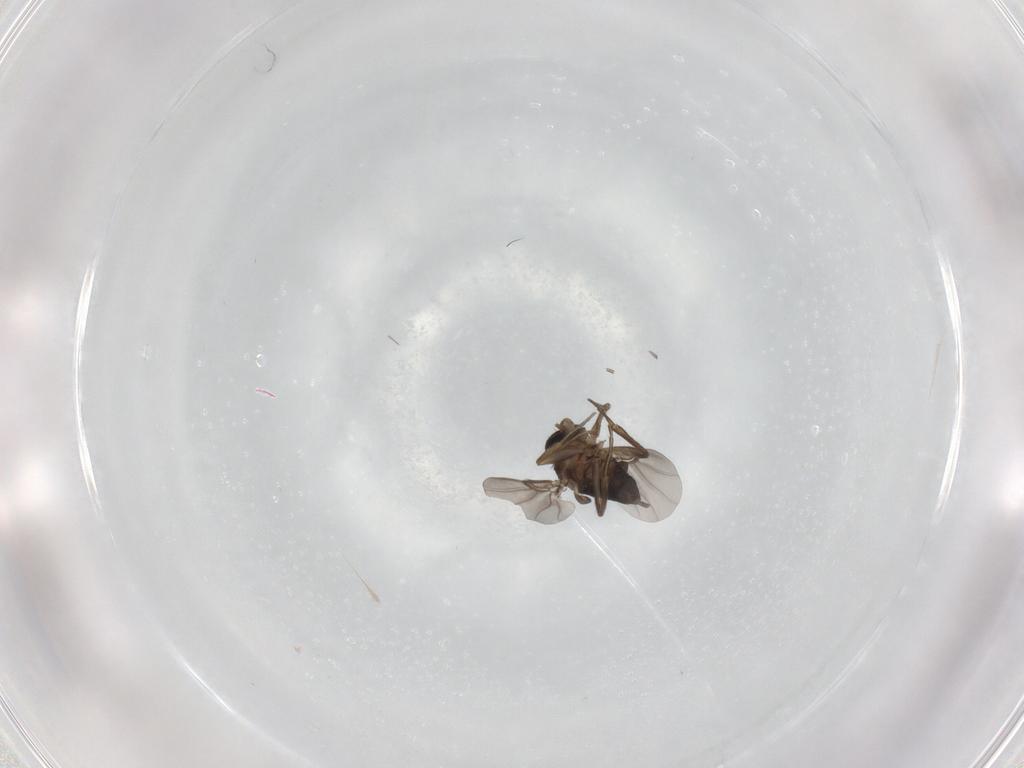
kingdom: Animalia
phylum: Arthropoda
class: Insecta
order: Diptera
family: Phoridae
